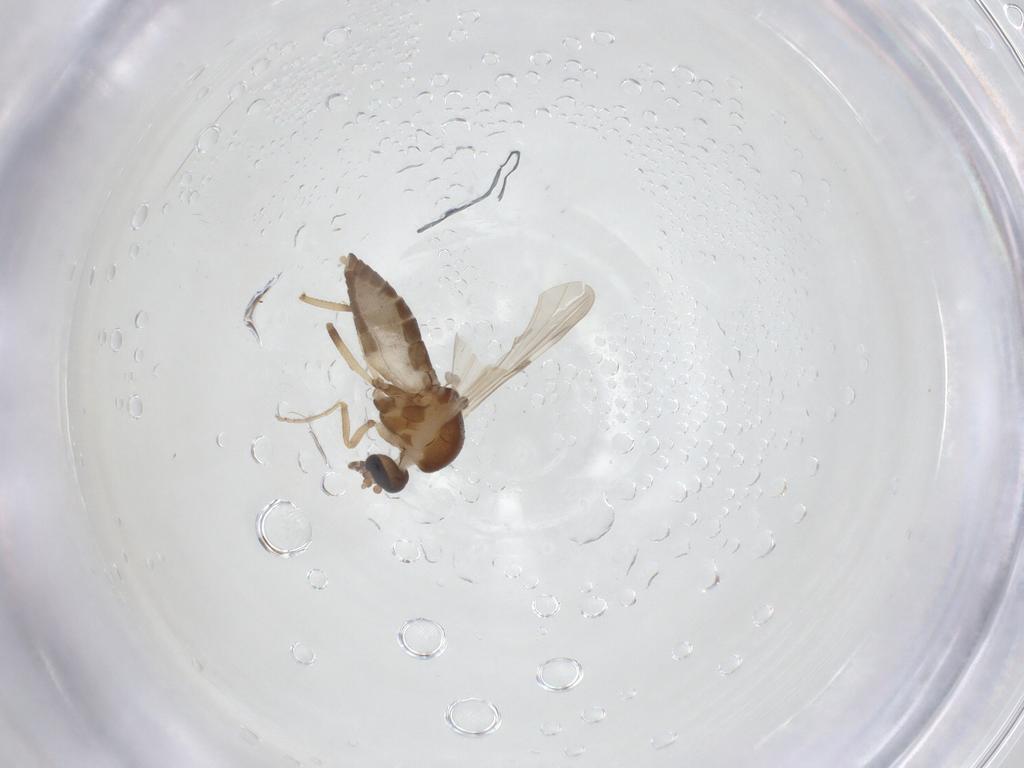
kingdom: Animalia
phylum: Arthropoda
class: Insecta
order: Diptera
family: Ceratopogonidae
